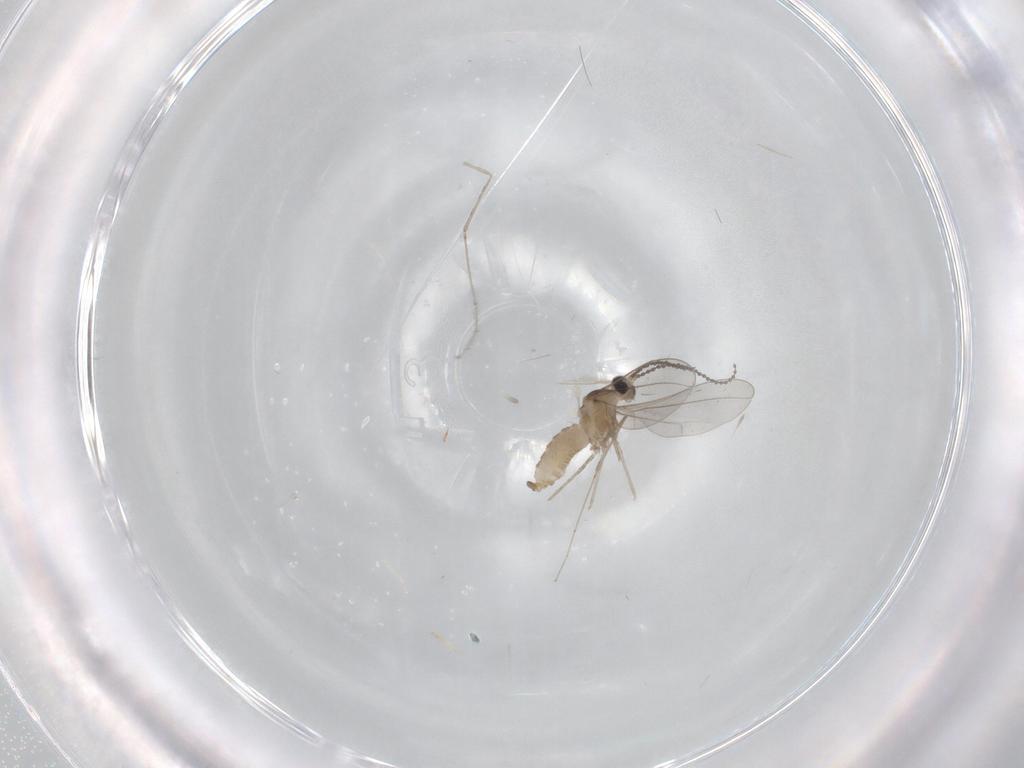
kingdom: Animalia
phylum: Arthropoda
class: Insecta
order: Diptera
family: Cecidomyiidae
